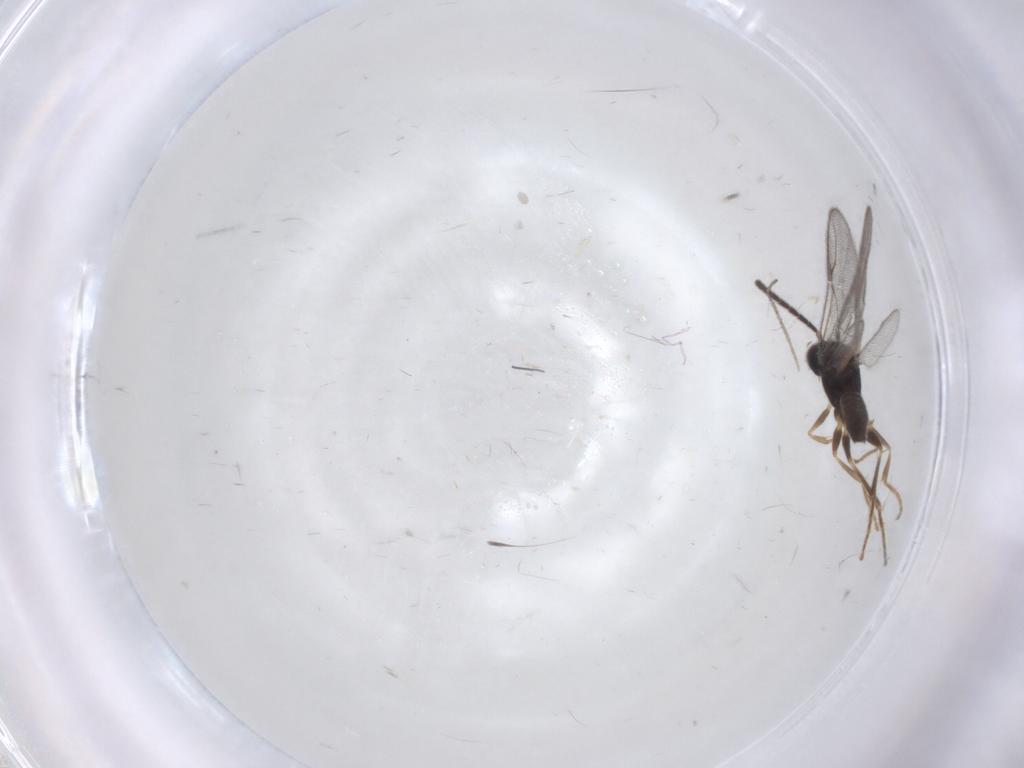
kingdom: Animalia
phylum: Arthropoda
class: Insecta
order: Hymenoptera
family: Dryinidae
